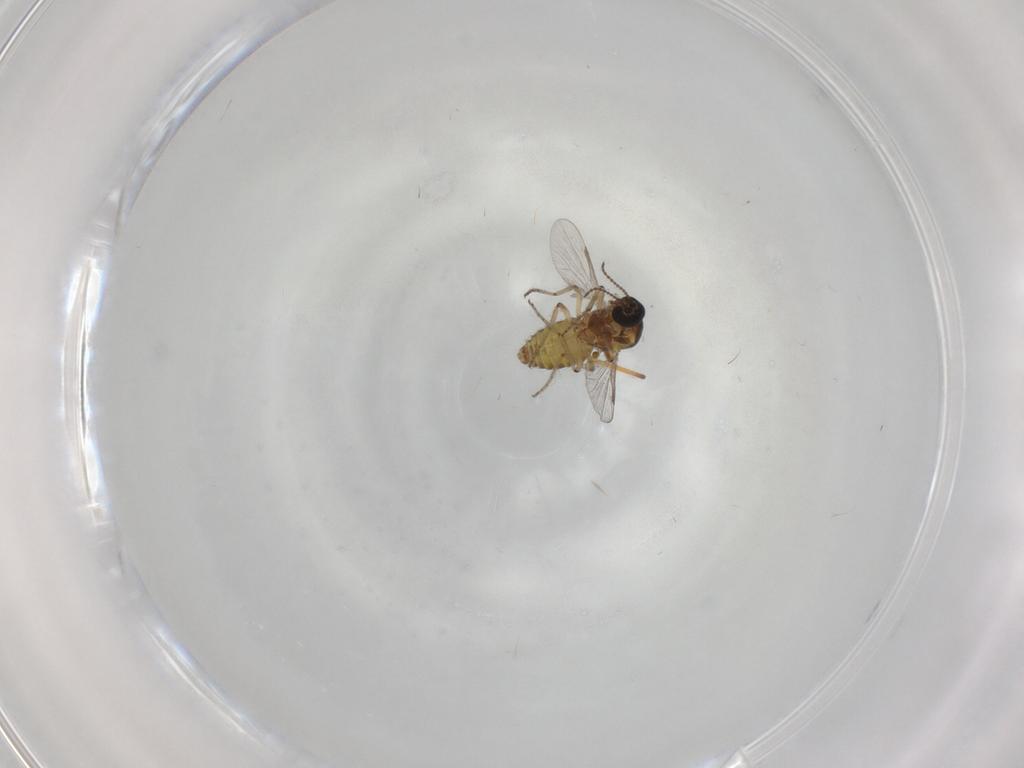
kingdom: Animalia
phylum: Arthropoda
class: Insecta
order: Diptera
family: Ceratopogonidae
